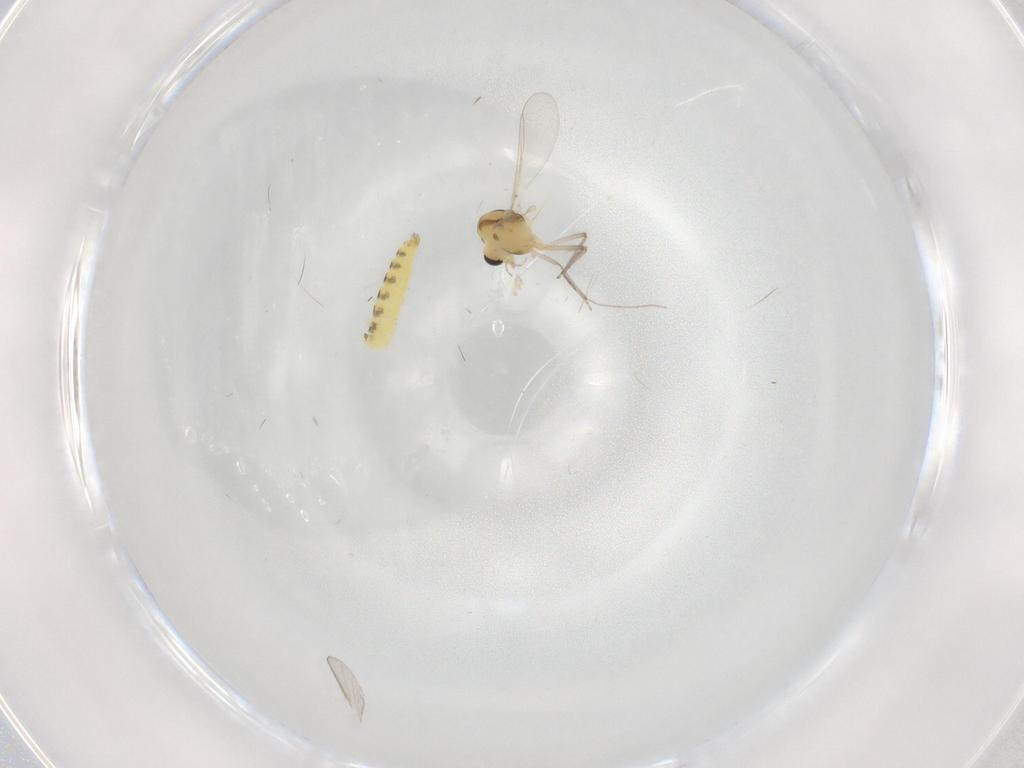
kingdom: Animalia
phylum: Arthropoda
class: Insecta
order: Diptera
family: Chironomidae
